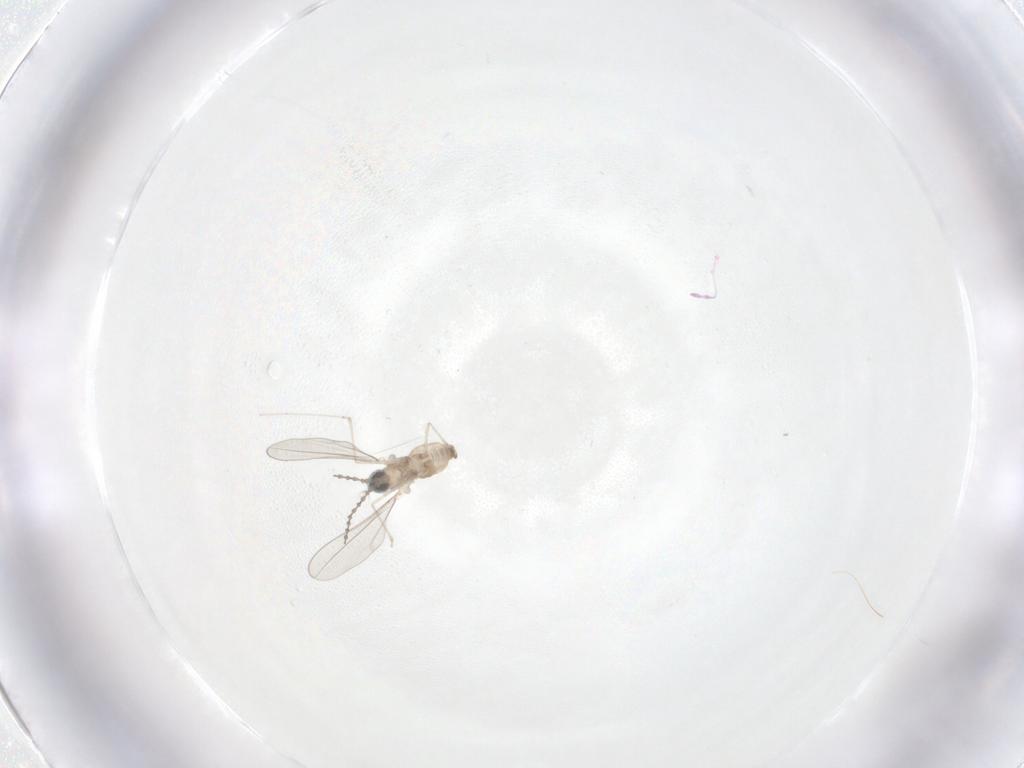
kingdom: Animalia
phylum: Arthropoda
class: Insecta
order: Diptera
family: Cecidomyiidae
